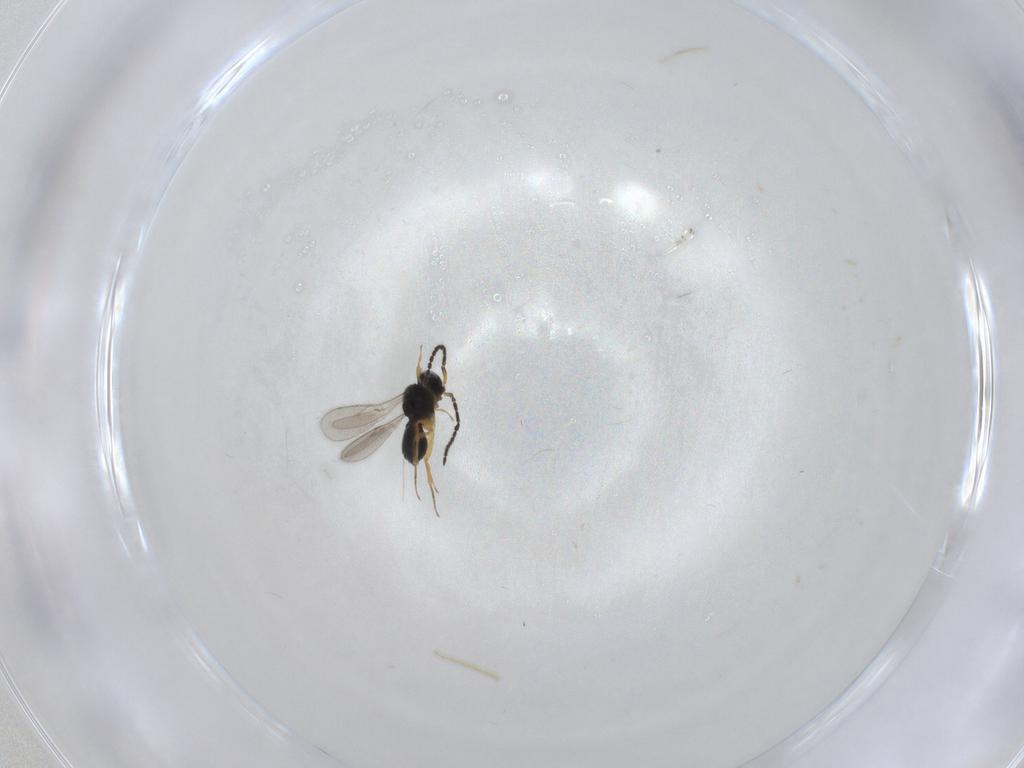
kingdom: Animalia
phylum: Arthropoda
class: Insecta
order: Hymenoptera
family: Scelionidae
